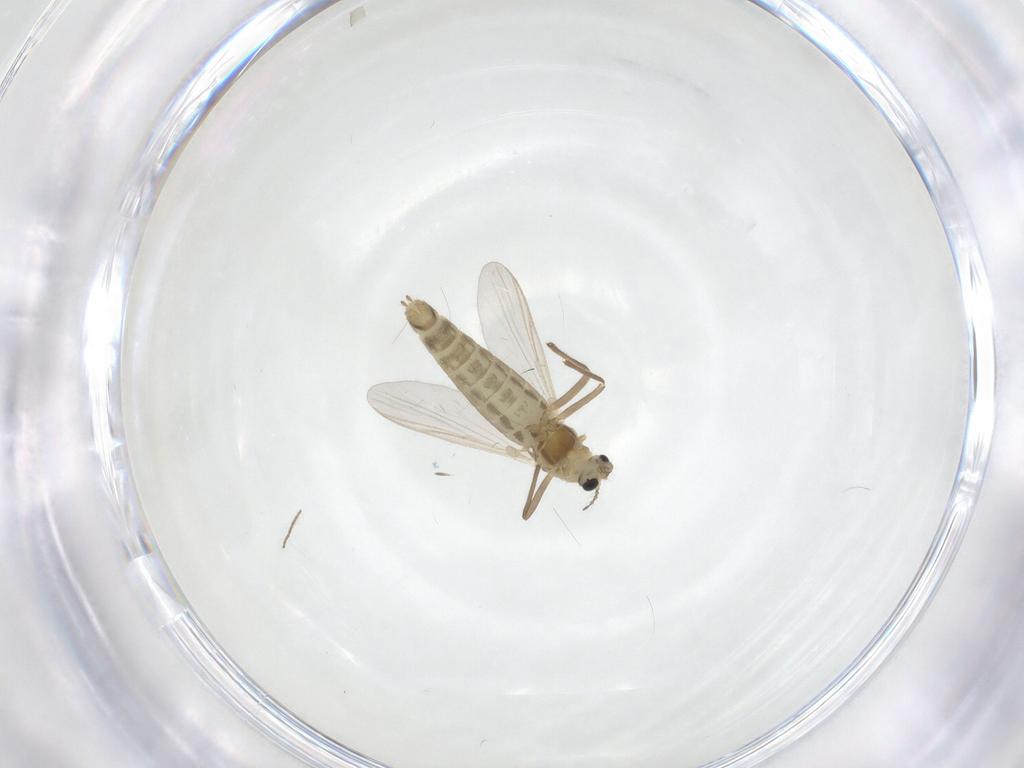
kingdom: Animalia
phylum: Arthropoda
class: Insecta
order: Diptera
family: Chironomidae
